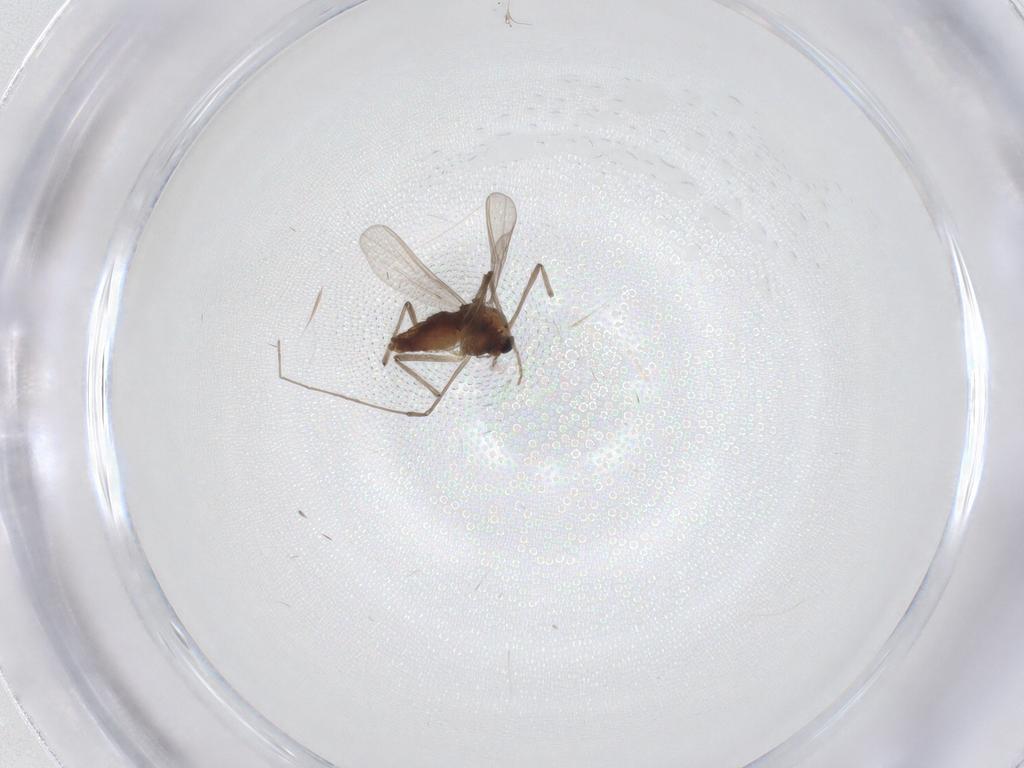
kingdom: Animalia
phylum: Arthropoda
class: Insecta
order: Diptera
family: Chironomidae
